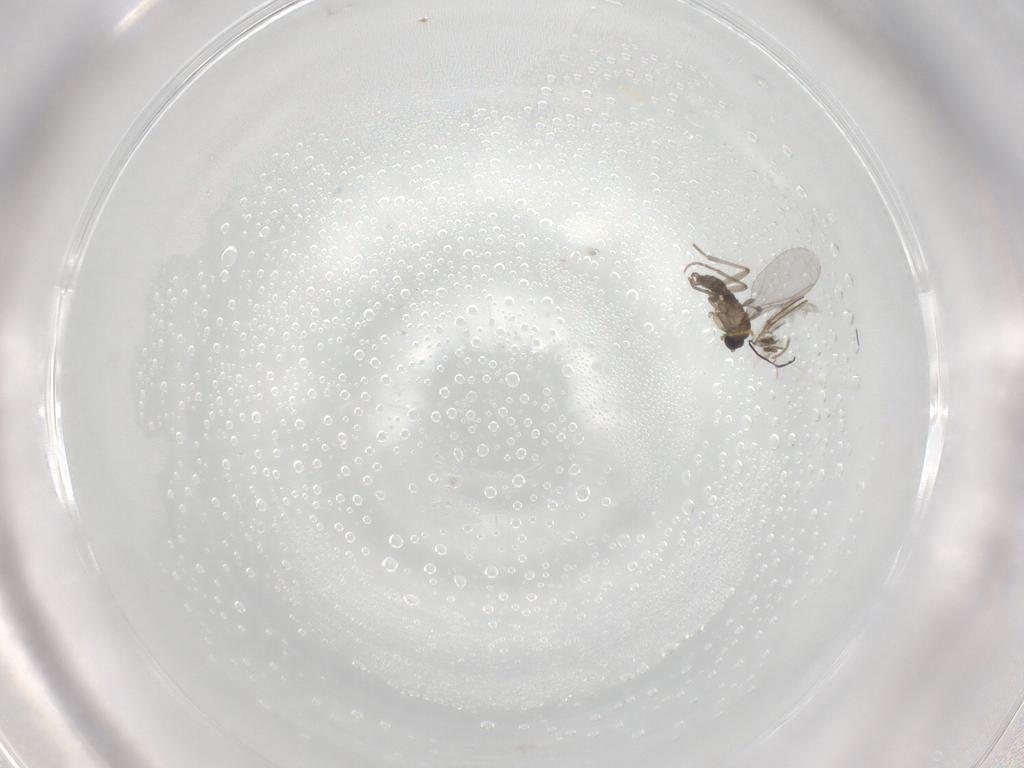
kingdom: Animalia
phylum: Arthropoda
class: Insecta
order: Diptera
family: Sciaridae
